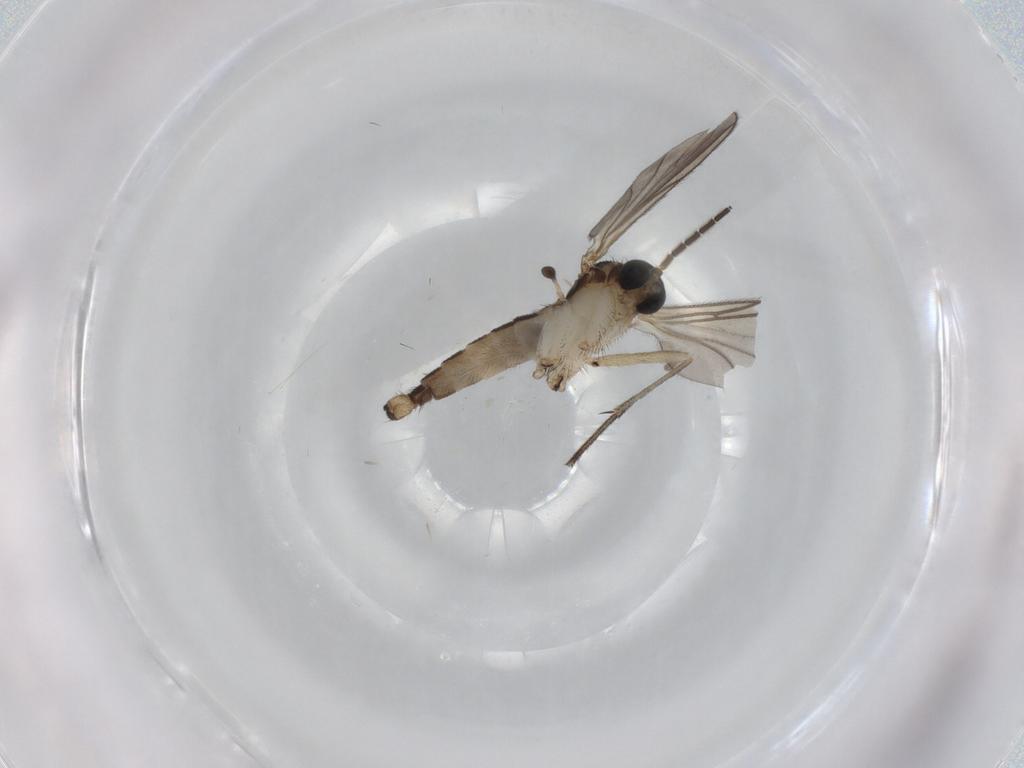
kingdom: Animalia
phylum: Arthropoda
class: Insecta
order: Diptera
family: Sciaridae
